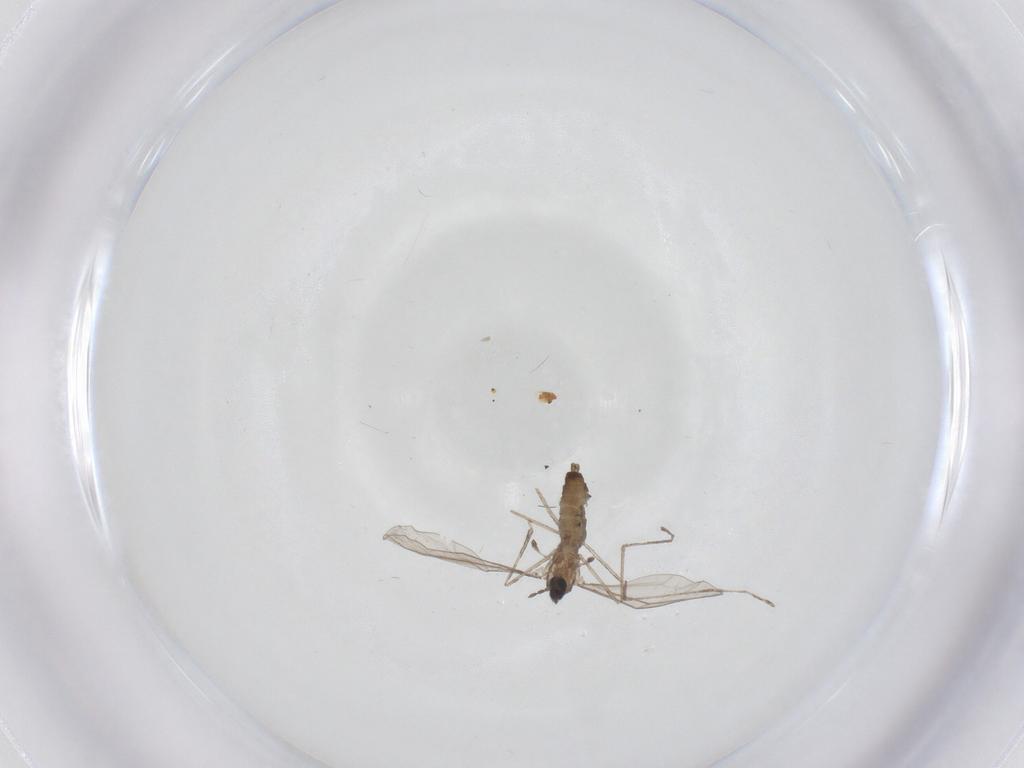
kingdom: Animalia
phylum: Arthropoda
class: Insecta
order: Diptera
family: Cecidomyiidae
